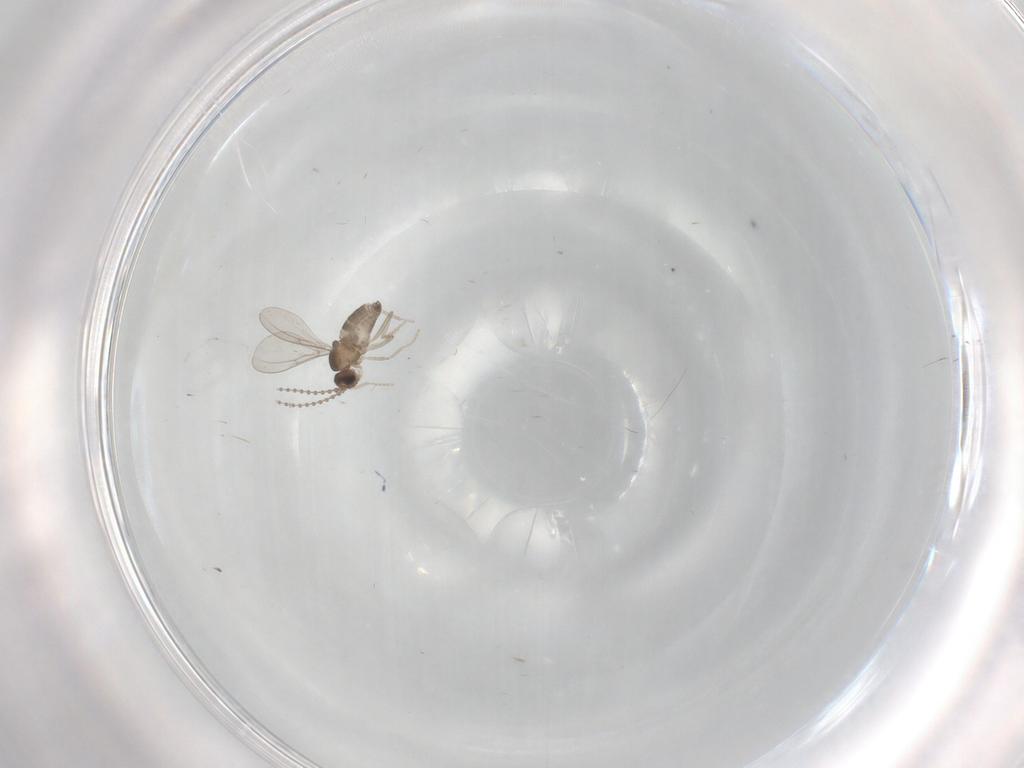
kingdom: Animalia
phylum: Arthropoda
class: Insecta
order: Diptera
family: Cecidomyiidae
